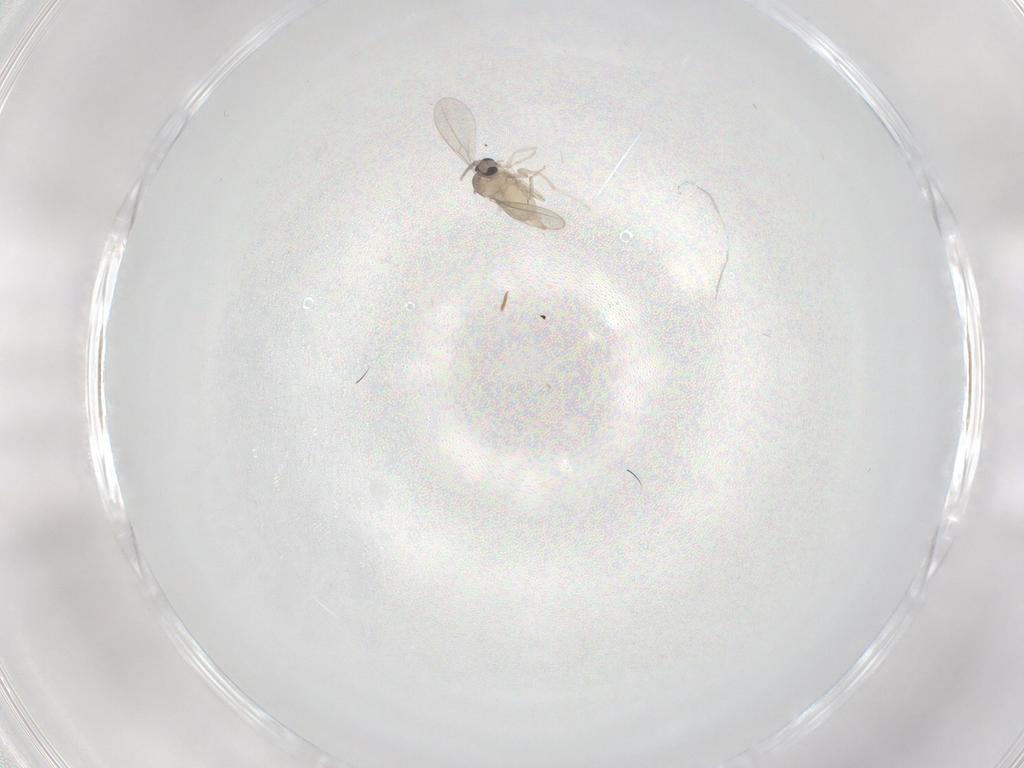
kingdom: Animalia
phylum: Arthropoda
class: Insecta
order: Diptera
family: Cecidomyiidae
